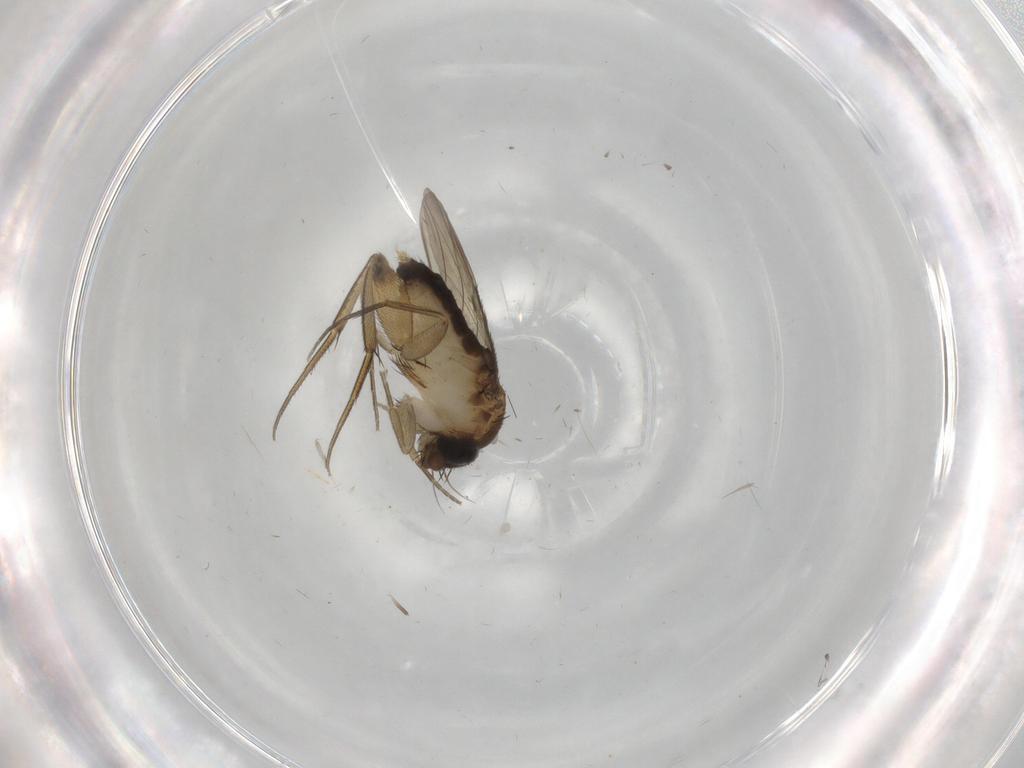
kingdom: Animalia
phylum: Arthropoda
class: Insecta
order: Diptera
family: Phoridae
